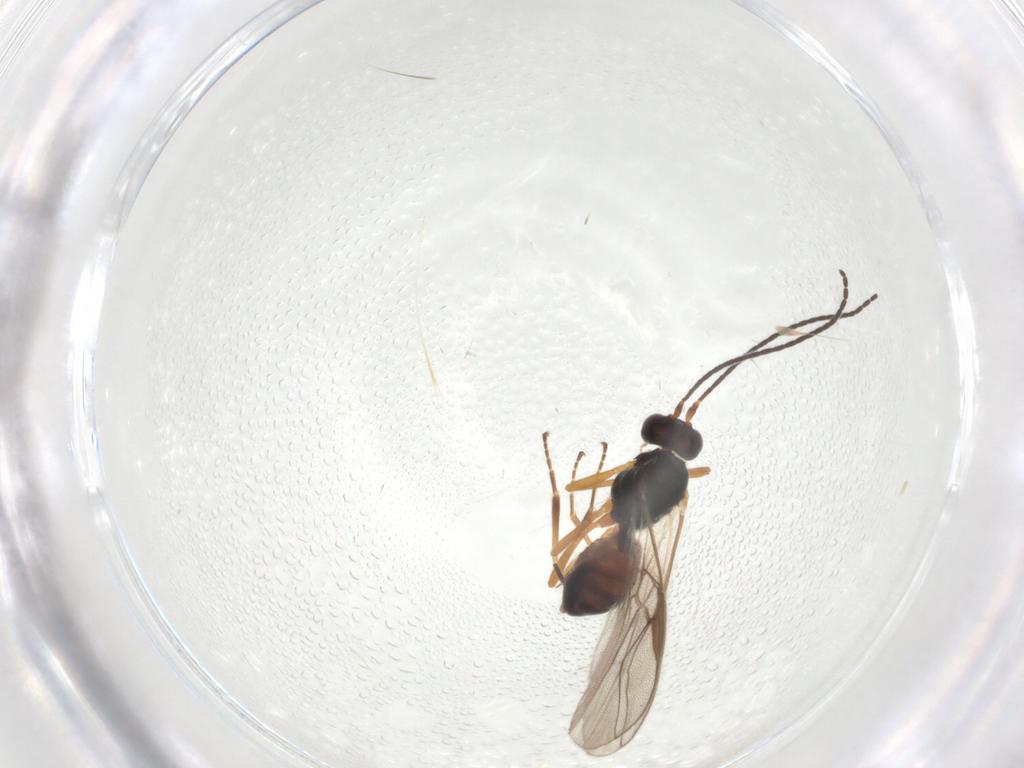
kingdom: Animalia
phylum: Arthropoda
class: Insecta
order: Hymenoptera
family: Braconidae
